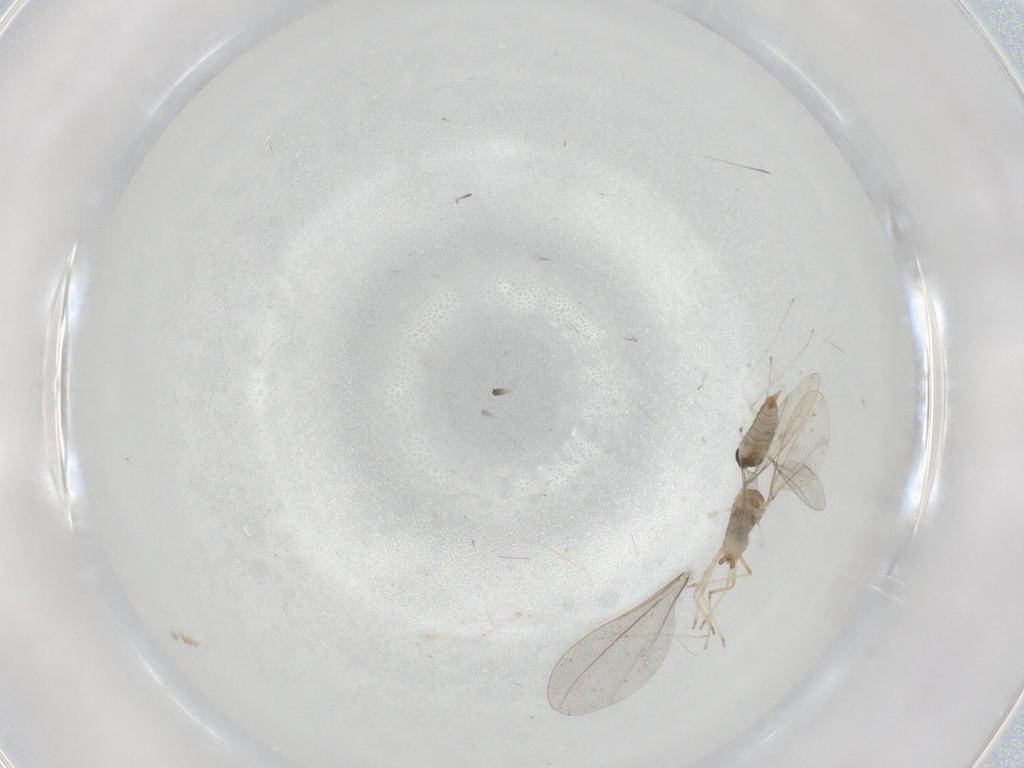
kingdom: Animalia
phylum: Arthropoda
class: Insecta
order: Diptera
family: Cecidomyiidae
